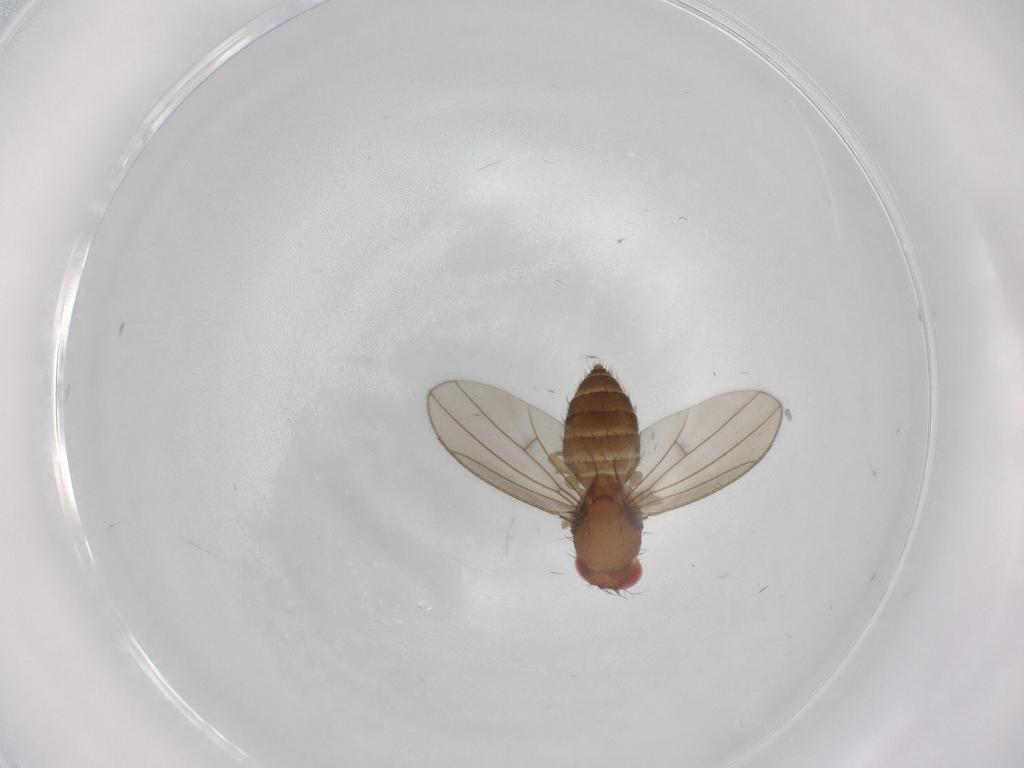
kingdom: Animalia
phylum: Arthropoda
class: Insecta
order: Diptera
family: Drosophilidae
